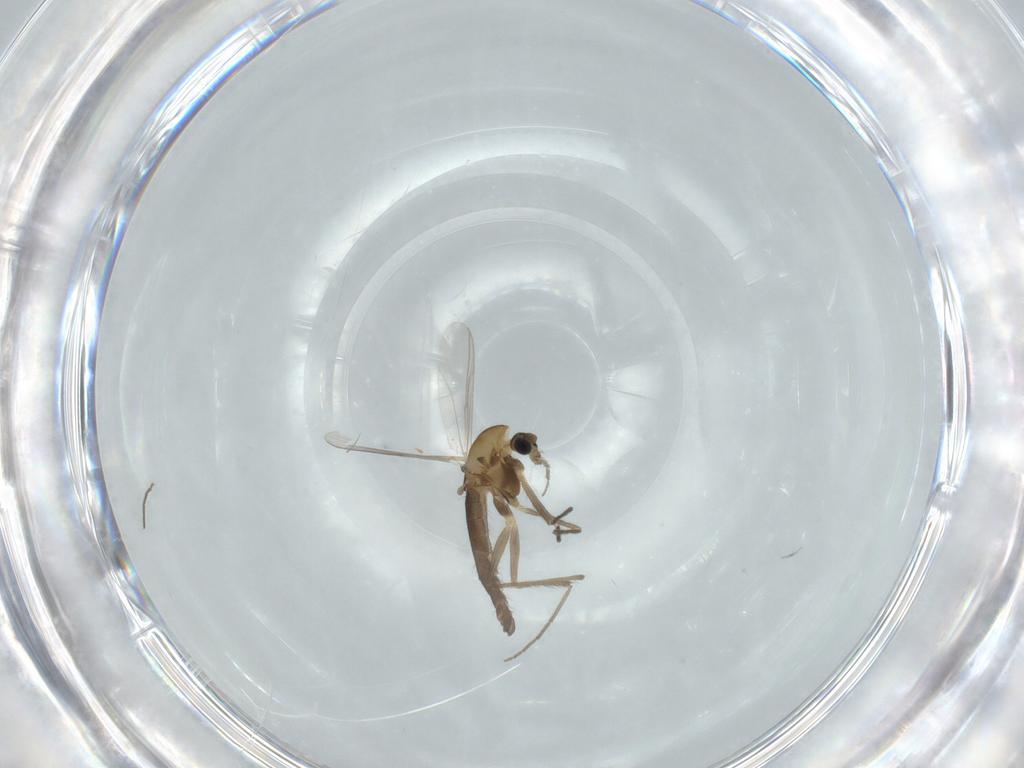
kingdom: Animalia
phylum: Arthropoda
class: Insecta
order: Diptera
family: Chironomidae
